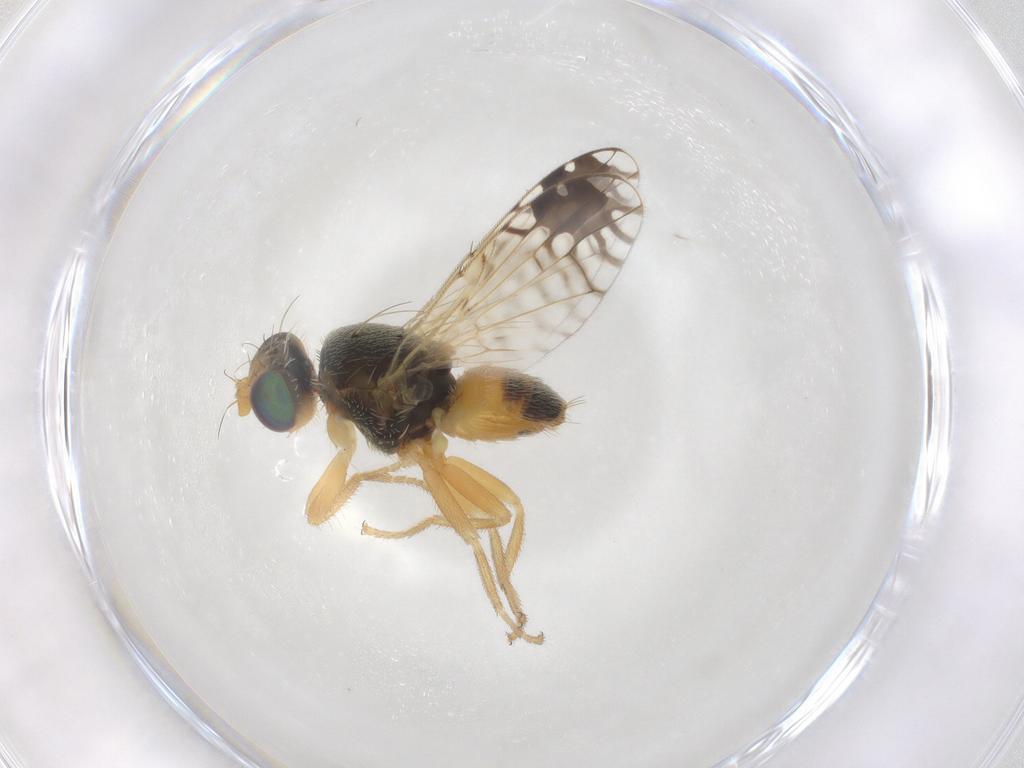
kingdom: Animalia
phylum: Arthropoda
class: Insecta
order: Diptera
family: Tephritidae
